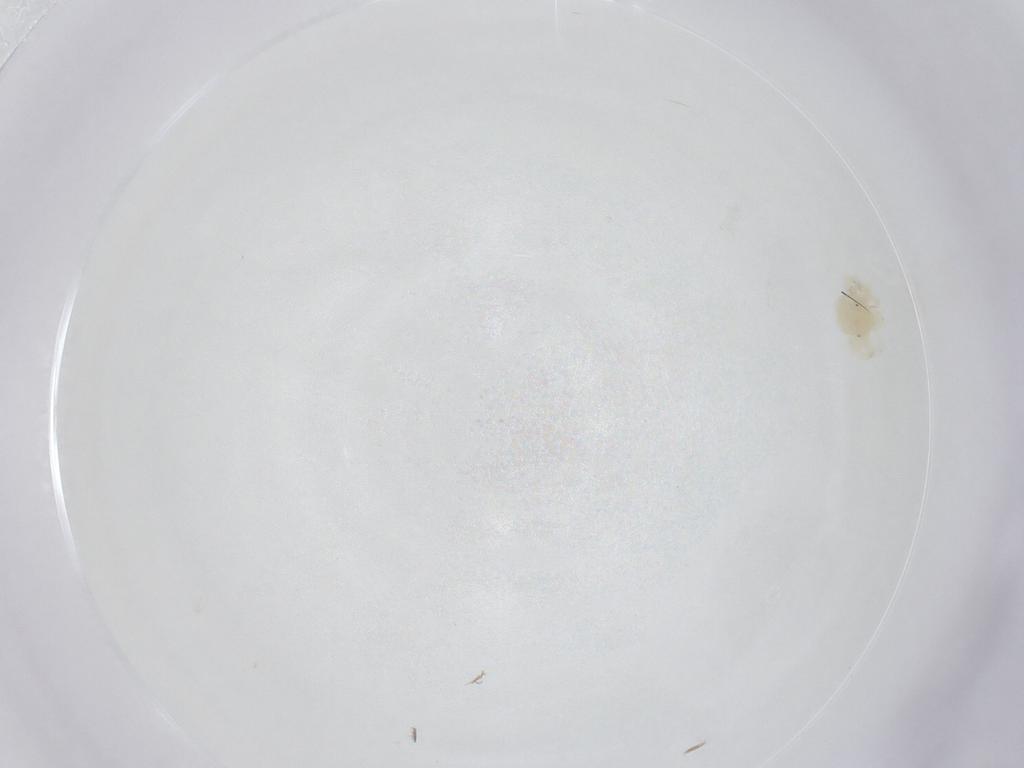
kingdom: Animalia
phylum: Arthropoda
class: Arachnida
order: Trombidiformes
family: Anystidae
